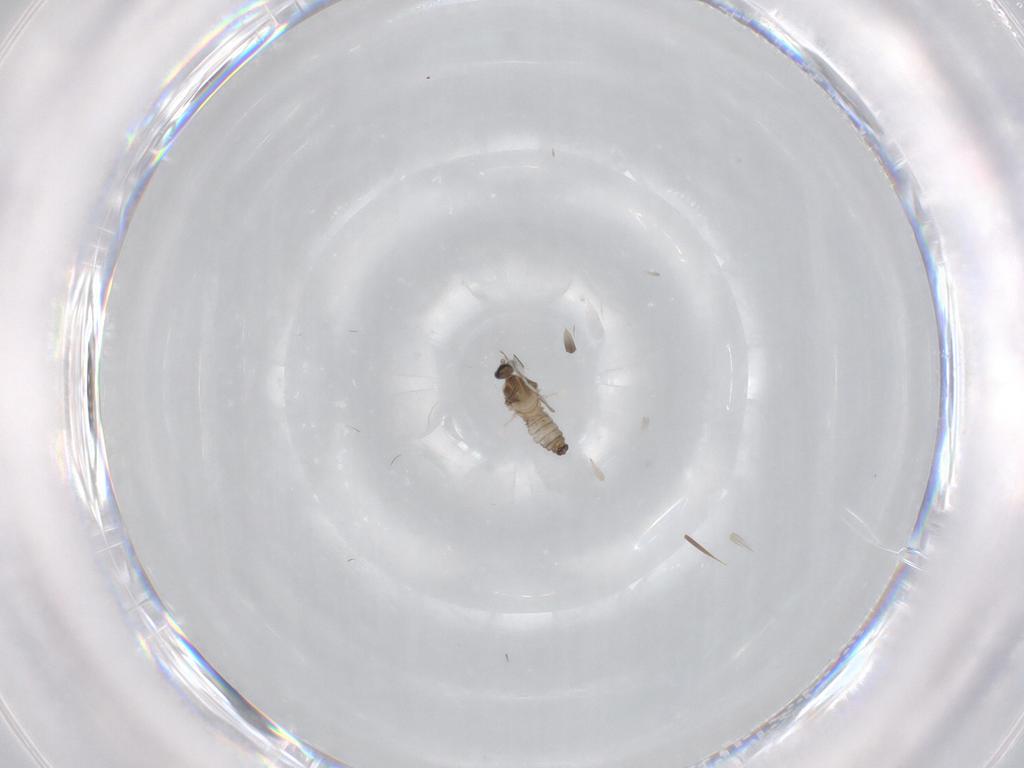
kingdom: Animalia
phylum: Arthropoda
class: Insecta
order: Diptera
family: Cecidomyiidae
